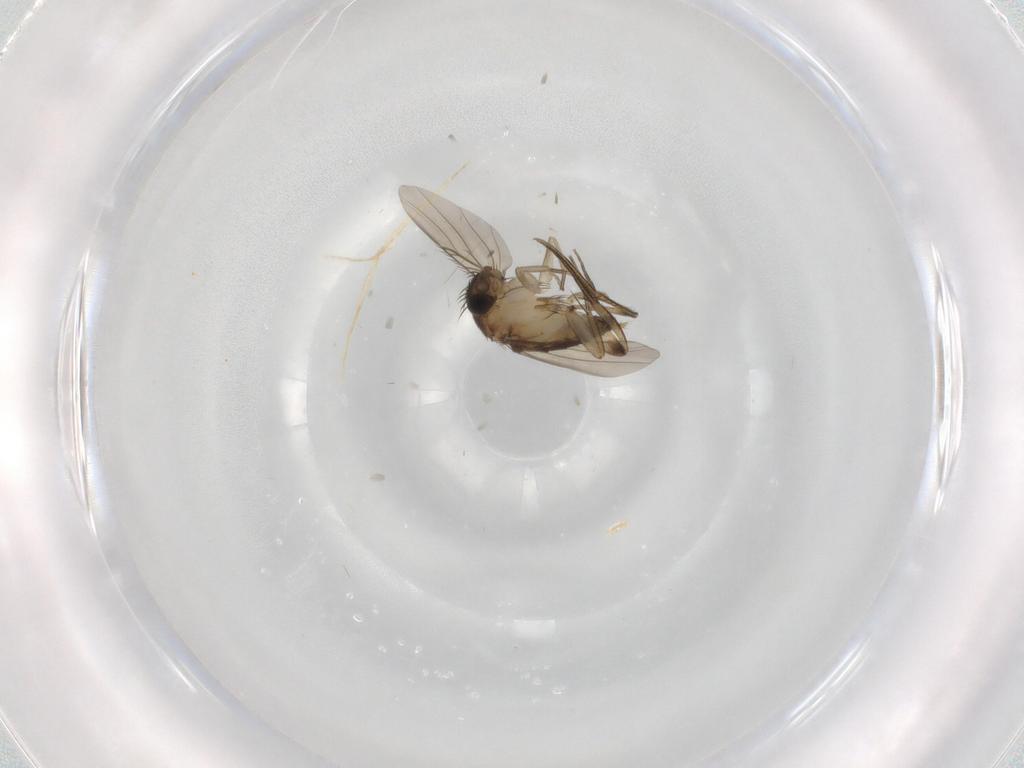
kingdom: Animalia
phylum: Arthropoda
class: Insecta
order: Diptera
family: Phoridae
